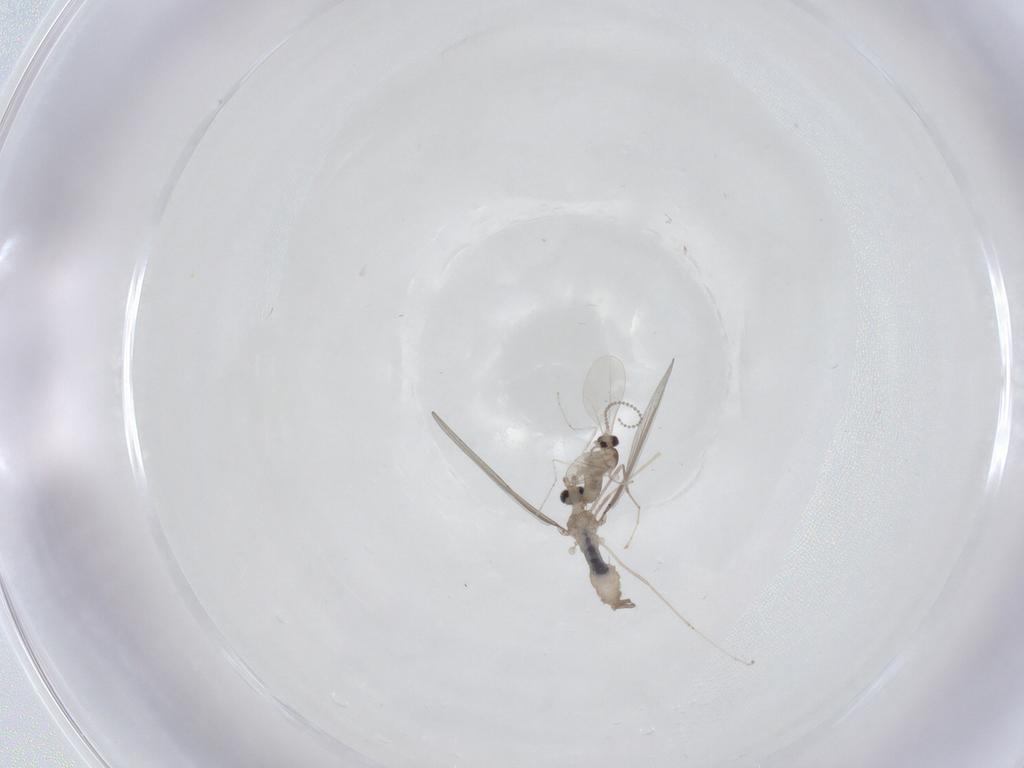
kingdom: Animalia
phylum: Arthropoda
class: Insecta
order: Diptera
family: Cecidomyiidae
